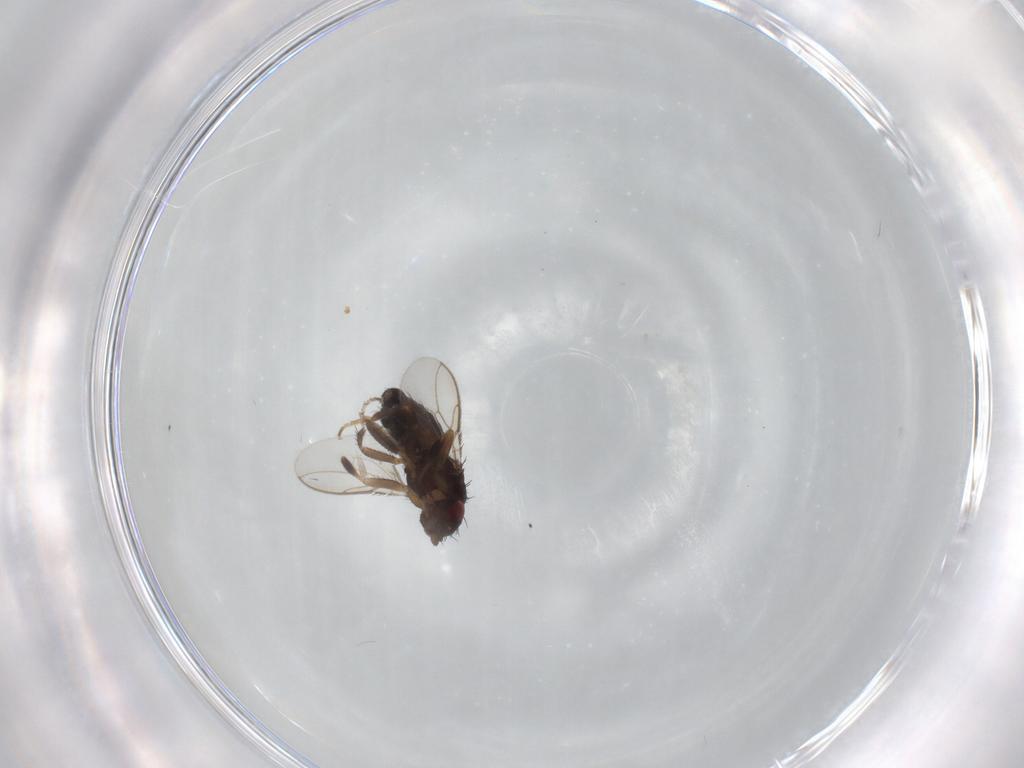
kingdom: Animalia
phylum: Arthropoda
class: Insecta
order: Diptera
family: Sphaeroceridae
